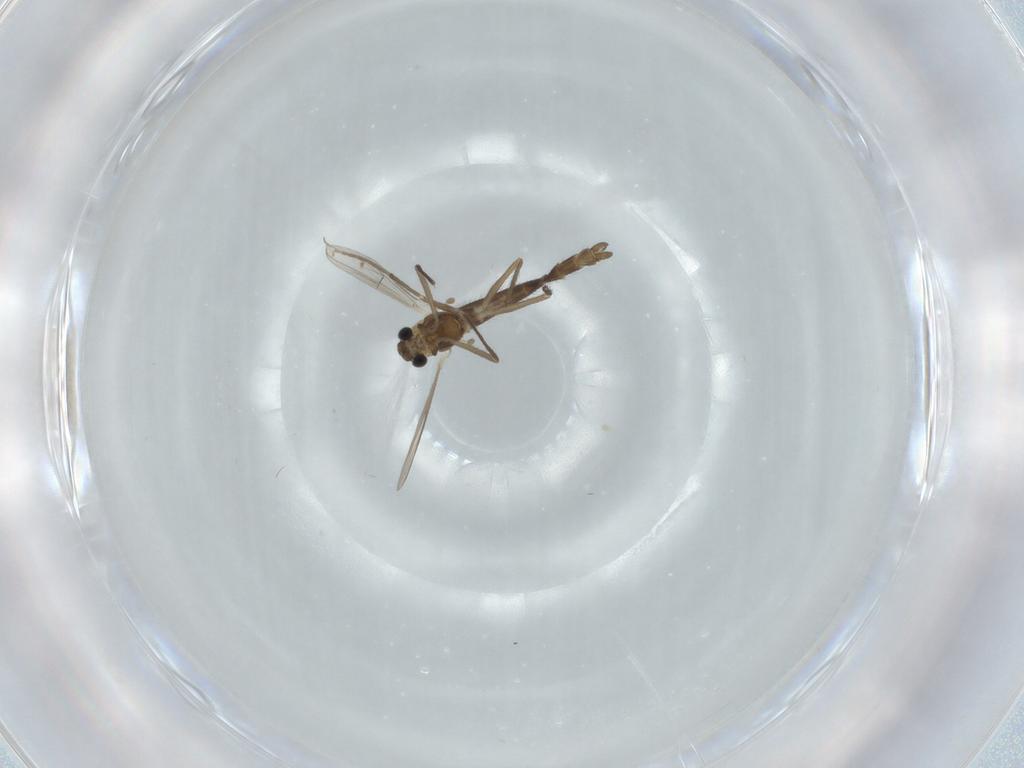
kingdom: Animalia
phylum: Arthropoda
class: Insecta
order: Diptera
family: Chironomidae
